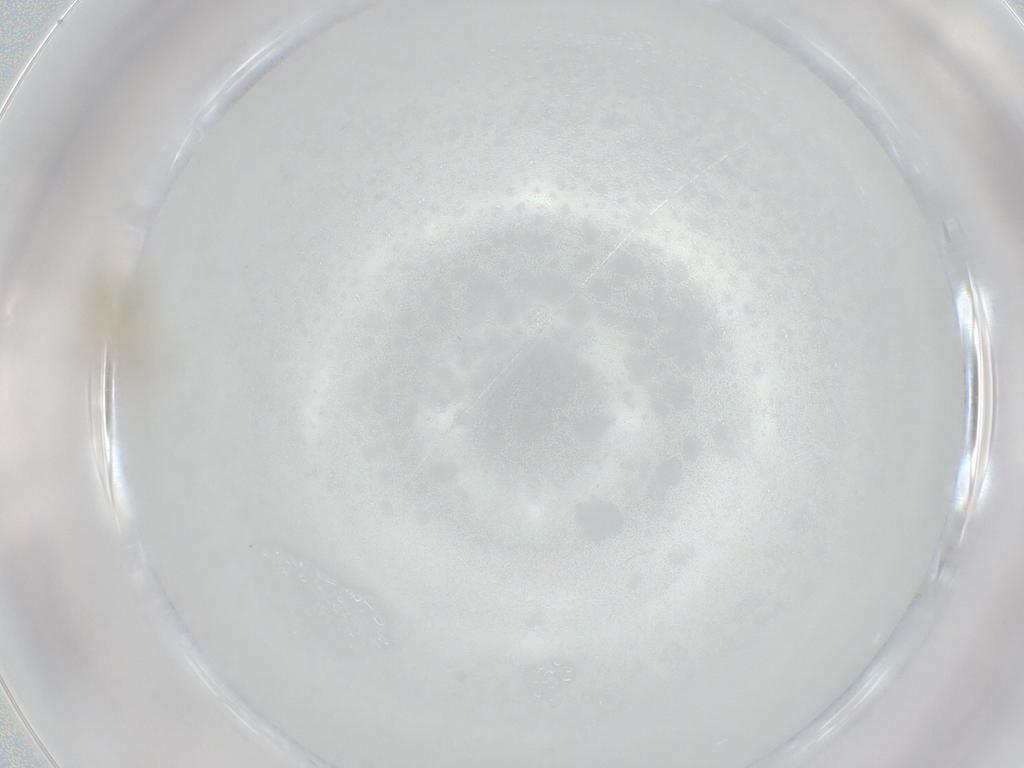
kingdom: Animalia
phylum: Arthropoda
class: Insecta
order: Diptera
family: Chironomidae
